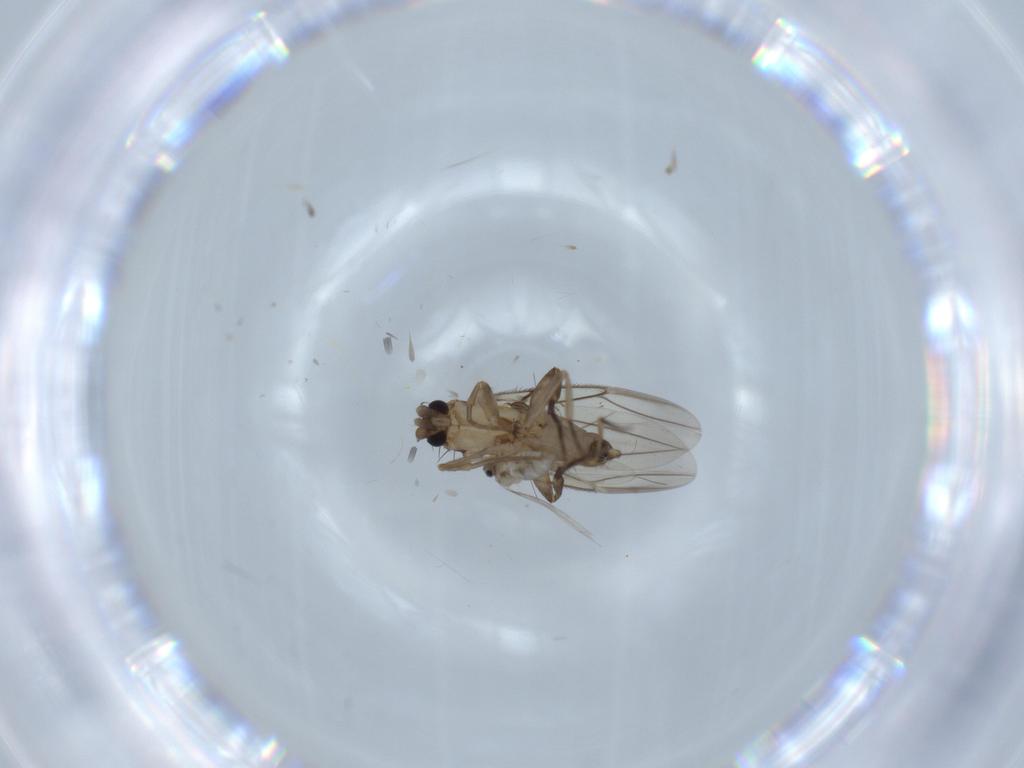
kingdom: Animalia
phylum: Arthropoda
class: Insecta
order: Diptera
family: Phoridae
